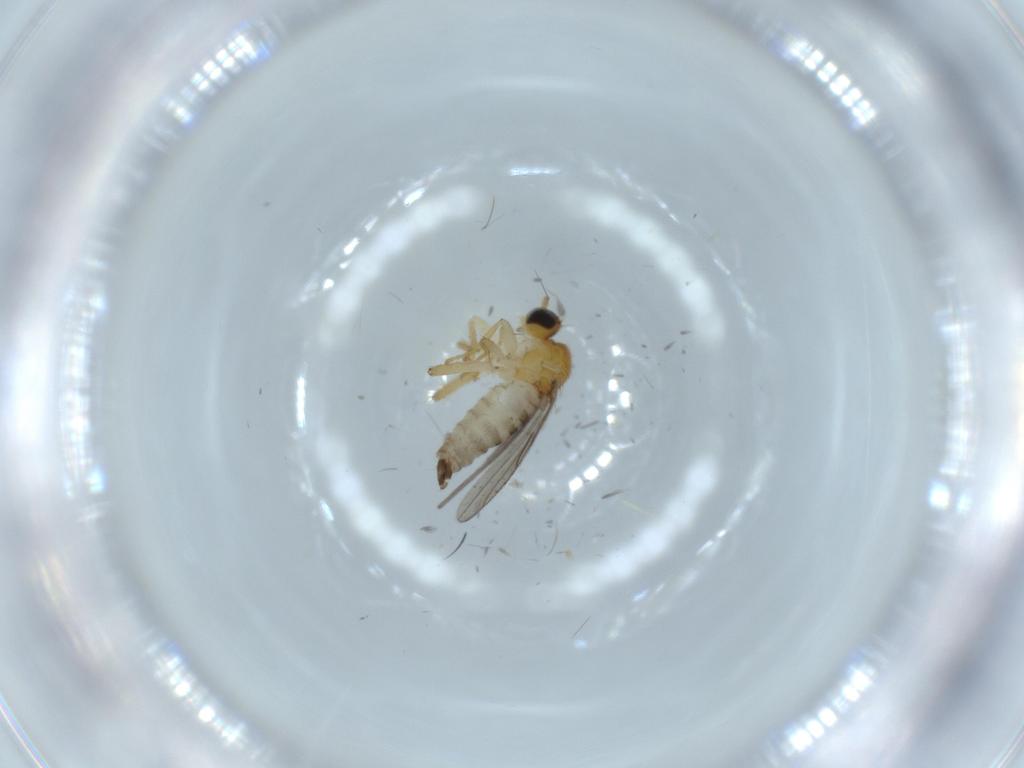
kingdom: Animalia
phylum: Arthropoda
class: Insecta
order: Diptera
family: Hybotidae
